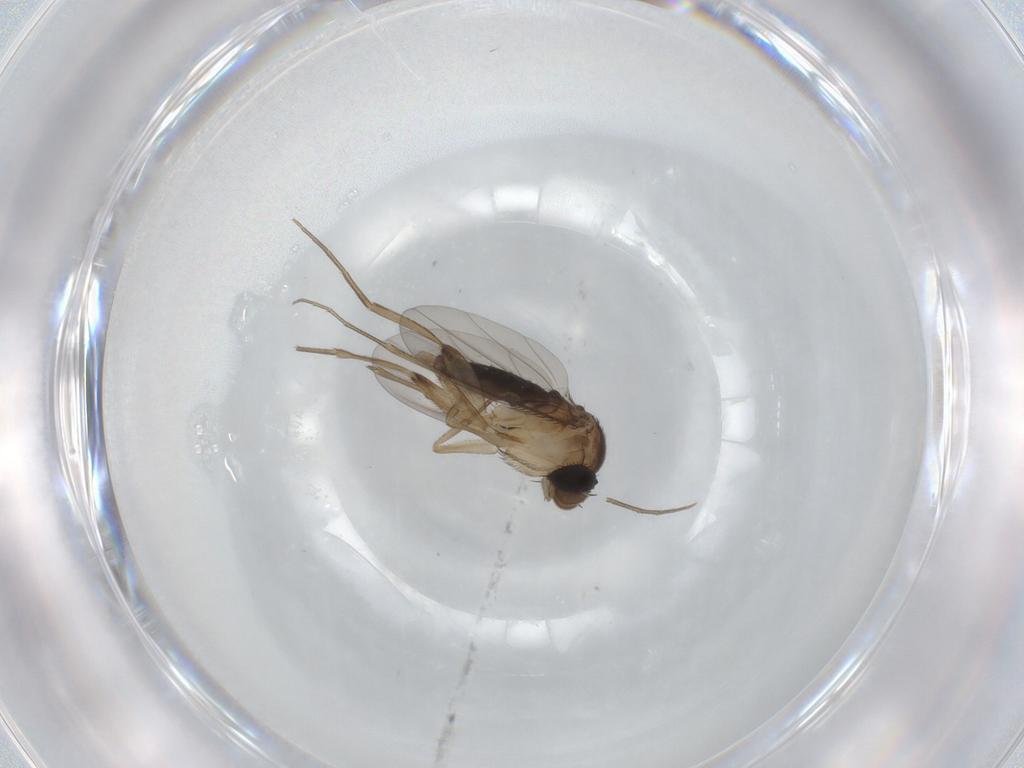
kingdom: Animalia
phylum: Arthropoda
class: Insecta
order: Diptera
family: Phoridae
